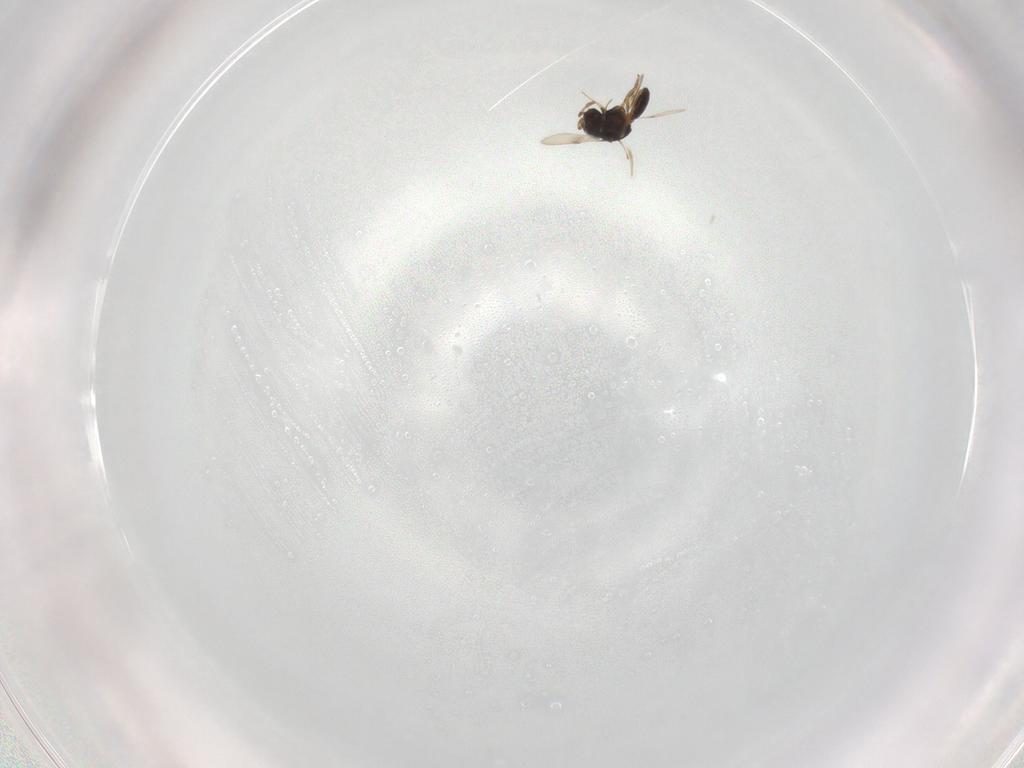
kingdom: Animalia
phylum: Arthropoda
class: Insecta
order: Hymenoptera
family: Scelionidae
